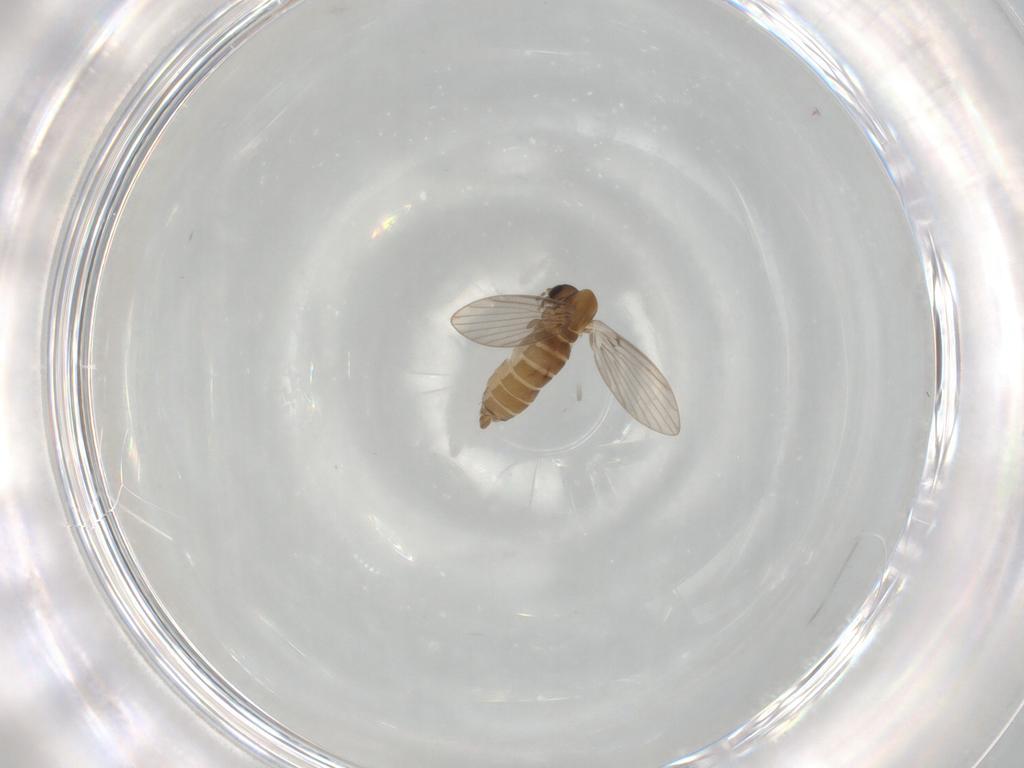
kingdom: Animalia
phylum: Arthropoda
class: Insecta
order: Diptera
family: Psychodidae
